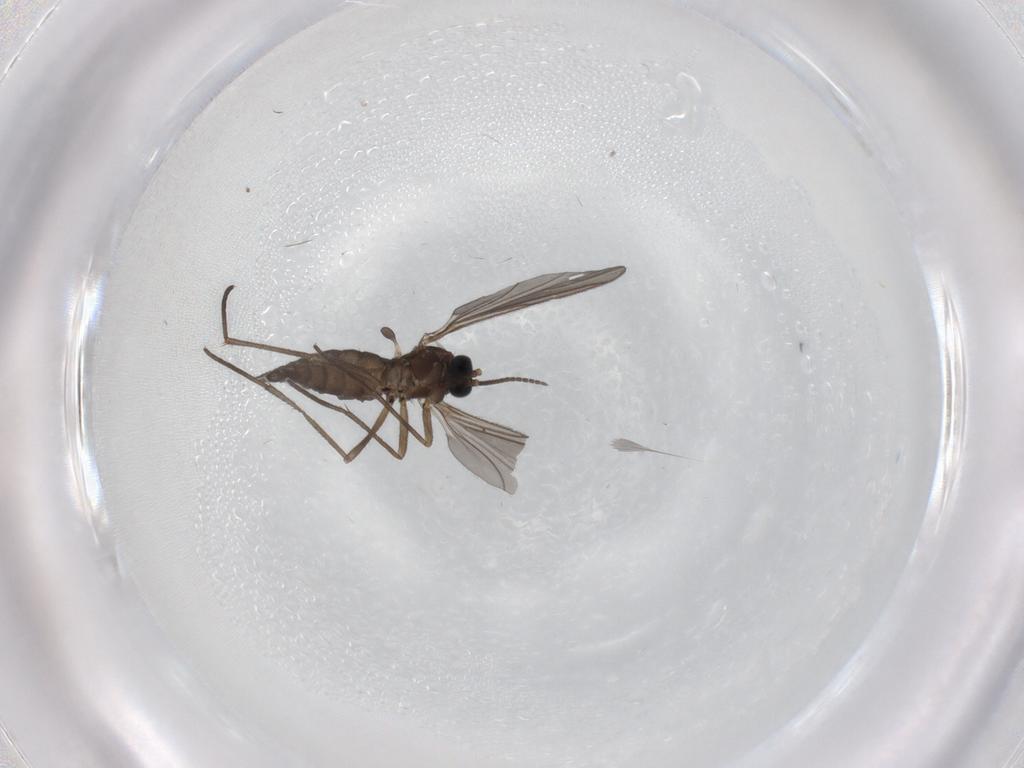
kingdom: Animalia
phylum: Arthropoda
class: Insecta
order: Diptera
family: Sciaridae
